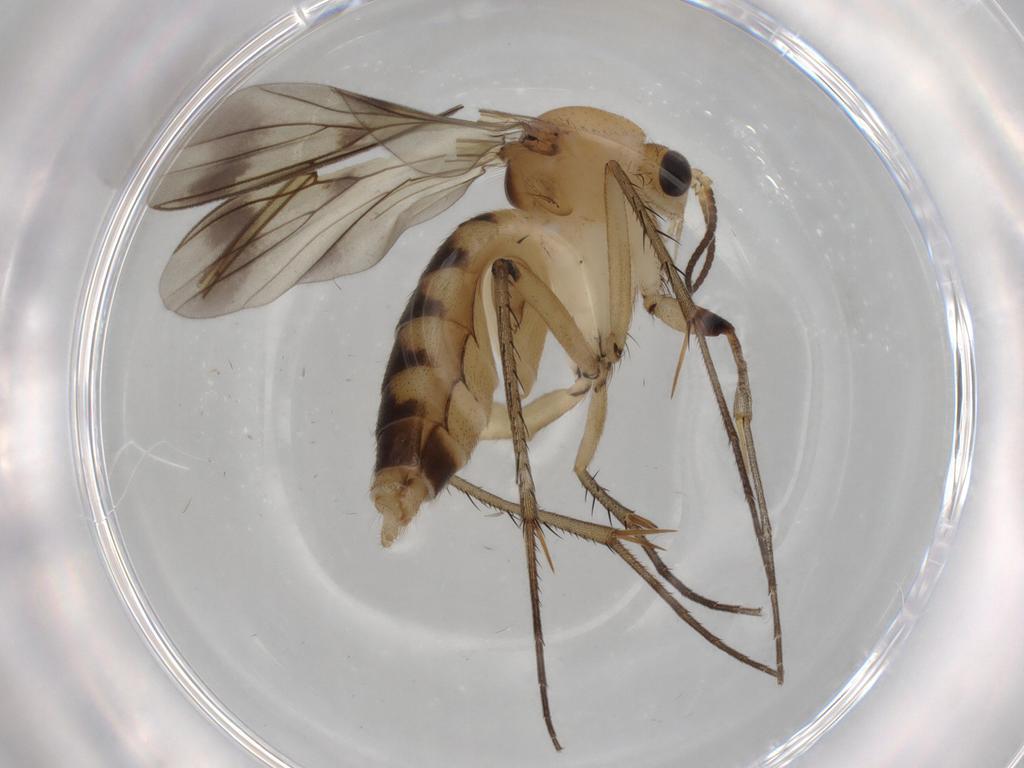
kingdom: Animalia
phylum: Arthropoda
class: Insecta
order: Diptera
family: Mycetophilidae
